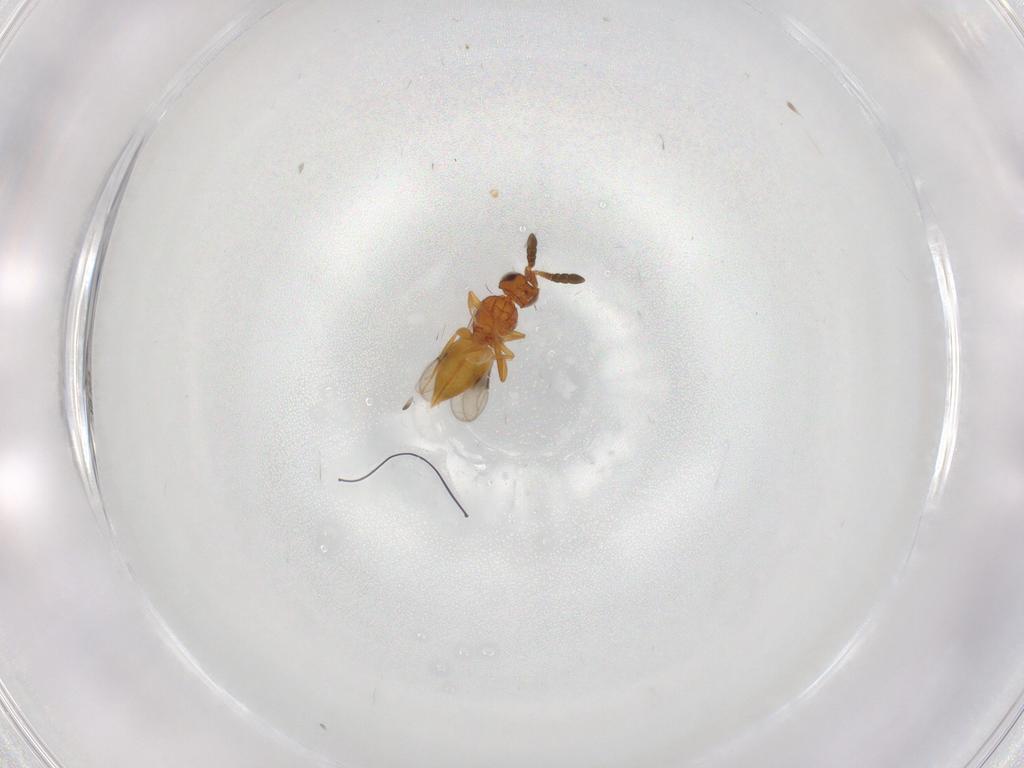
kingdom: Animalia
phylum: Arthropoda
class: Insecta
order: Hymenoptera
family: Ceraphronidae
